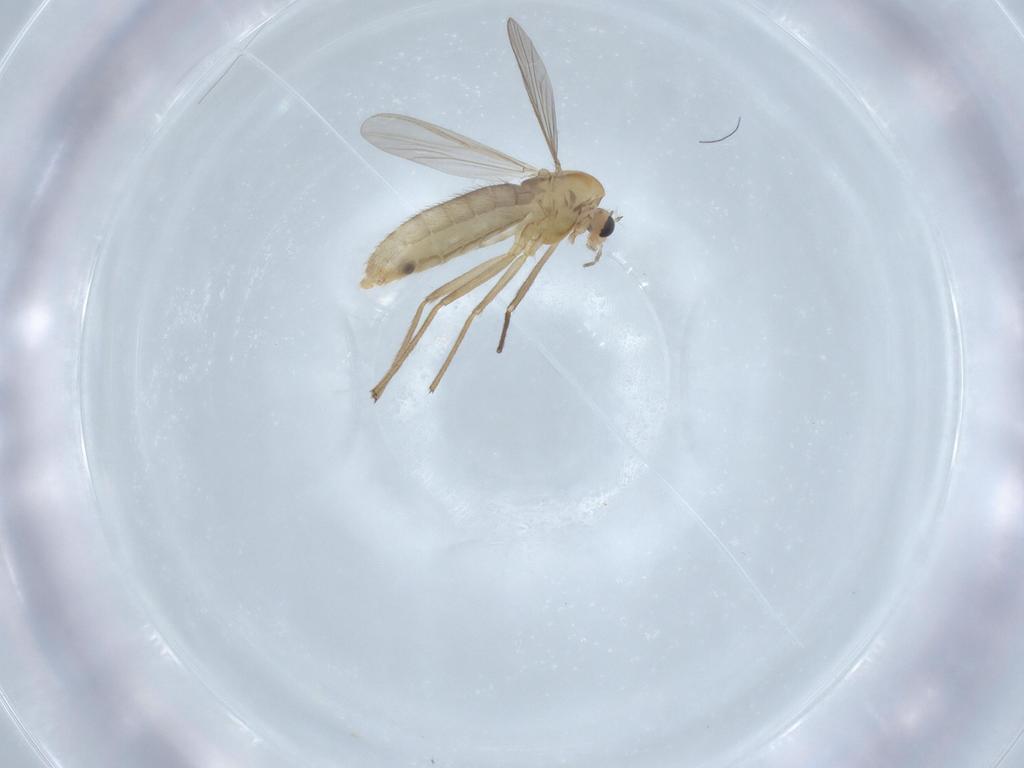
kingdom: Animalia
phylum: Arthropoda
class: Insecta
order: Diptera
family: Chironomidae
